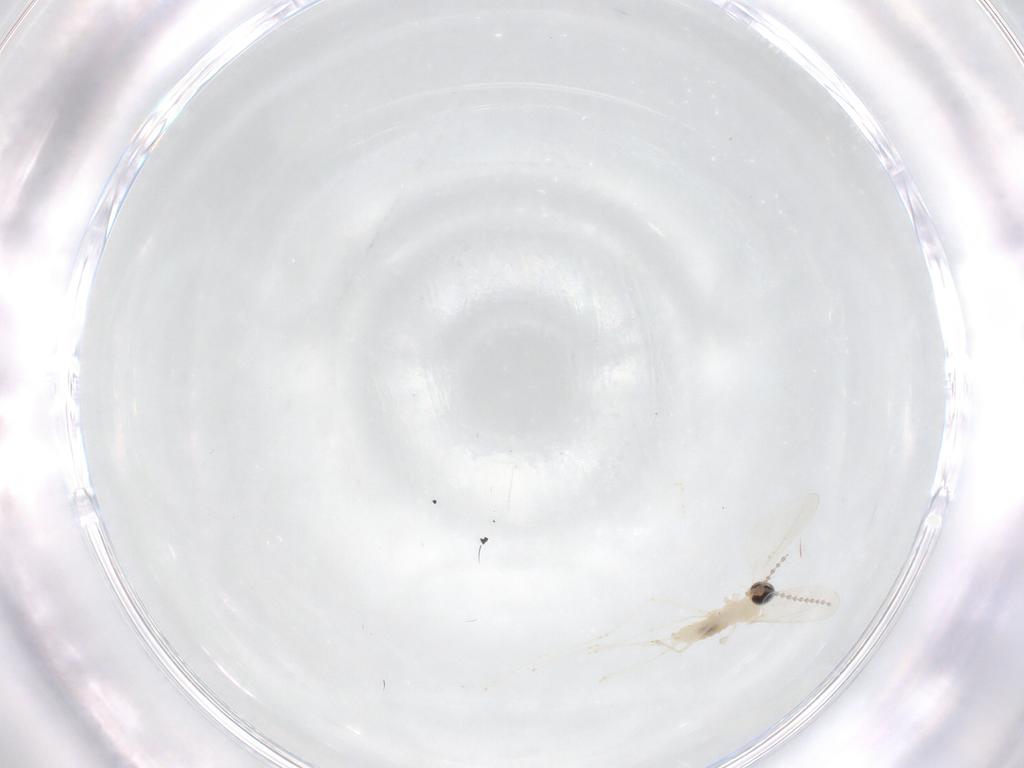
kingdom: Animalia
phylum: Arthropoda
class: Insecta
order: Diptera
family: Cecidomyiidae
